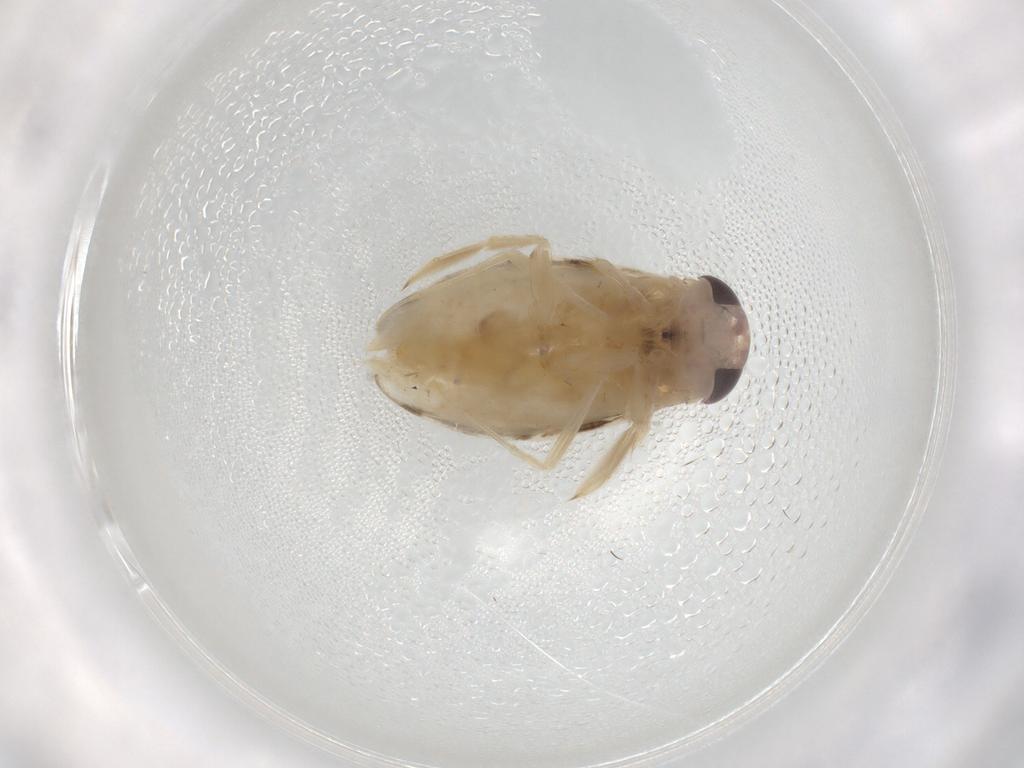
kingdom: Animalia
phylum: Arthropoda
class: Insecta
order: Hemiptera
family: Corixidae
